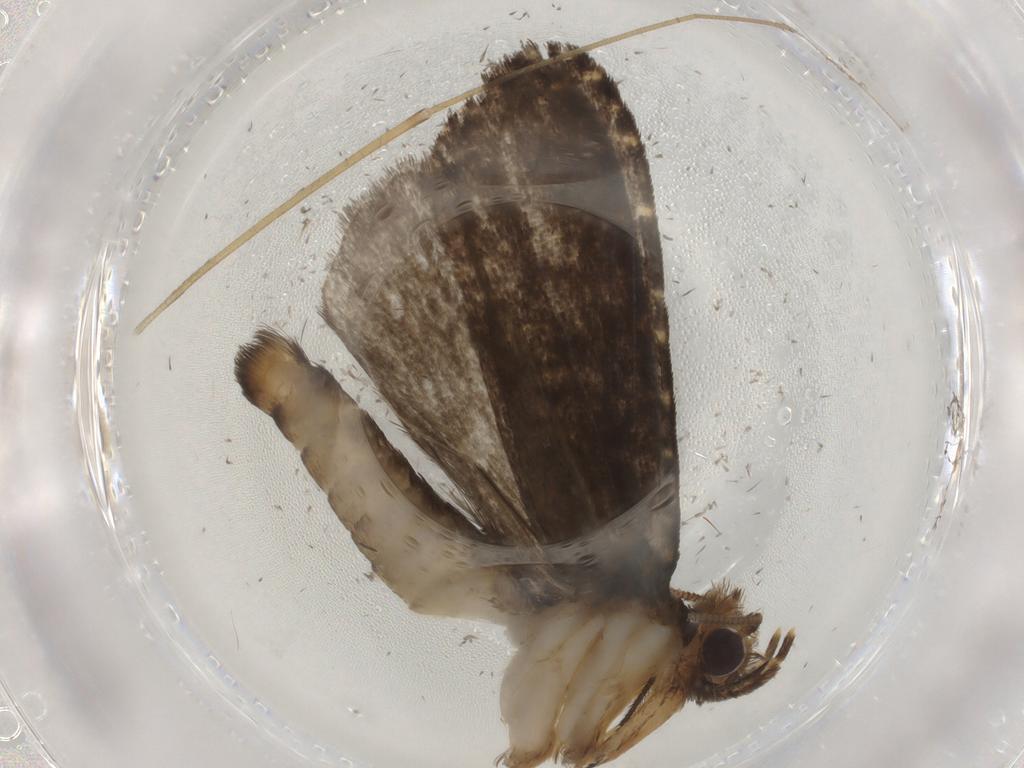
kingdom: Animalia
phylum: Arthropoda
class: Insecta
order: Lepidoptera
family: Tineidae
